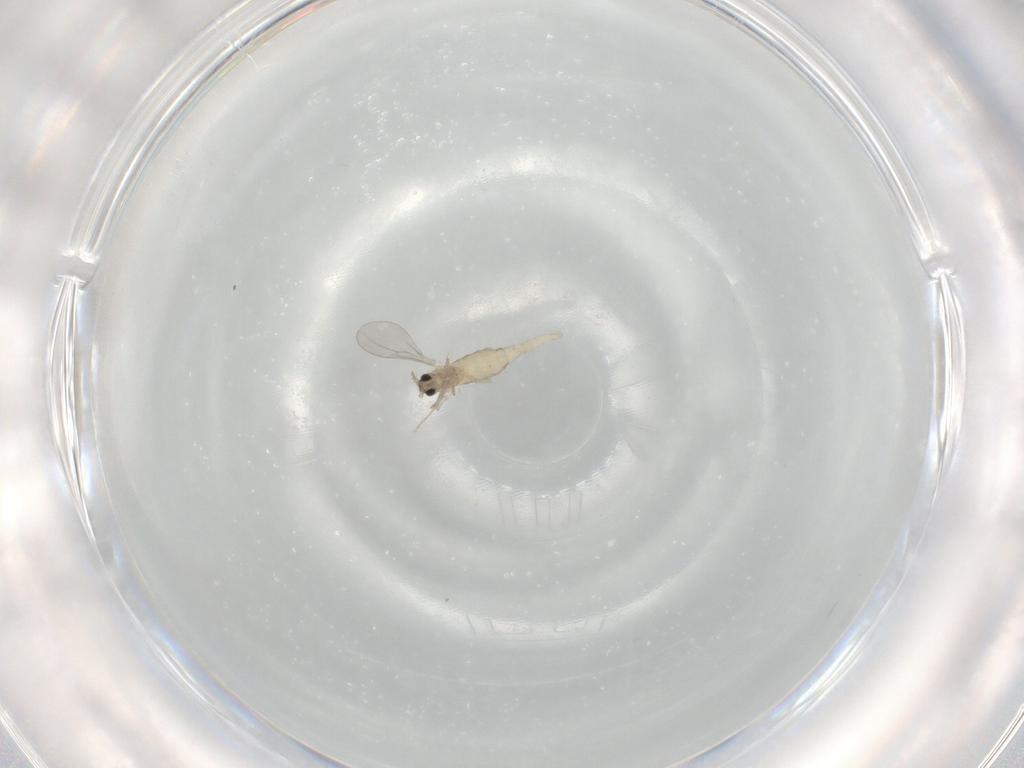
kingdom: Animalia
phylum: Arthropoda
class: Insecta
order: Diptera
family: Cecidomyiidae
